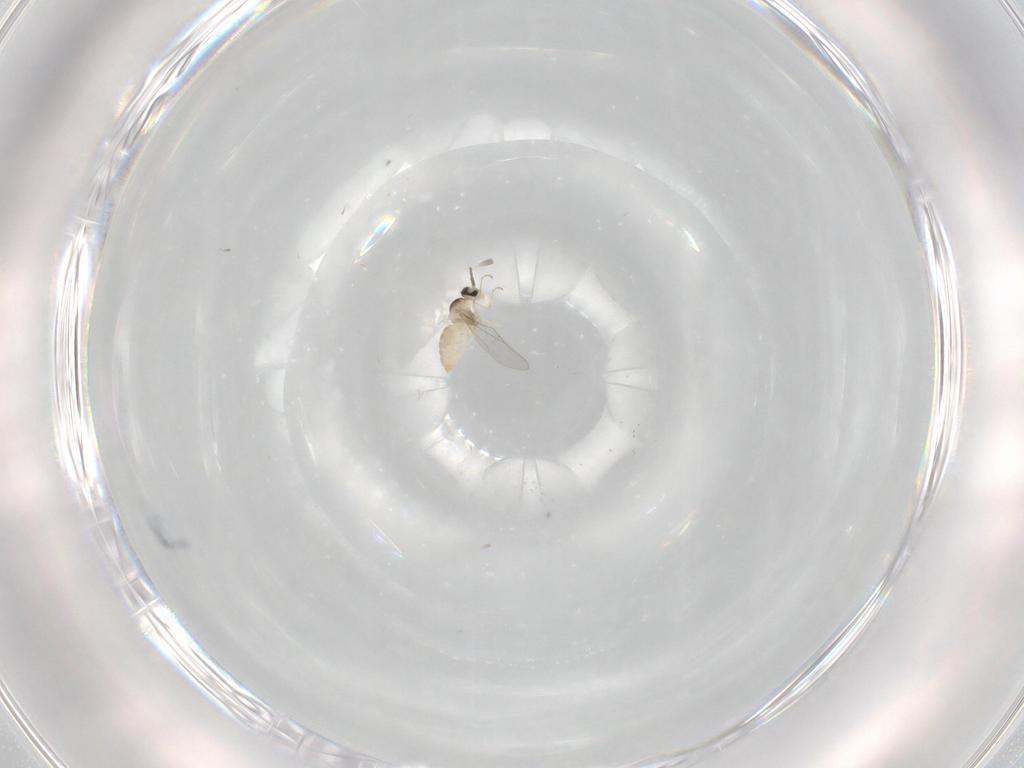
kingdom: Animalia
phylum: Arthropoda
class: Insecta
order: Diptera
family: Cecidomyiidae
